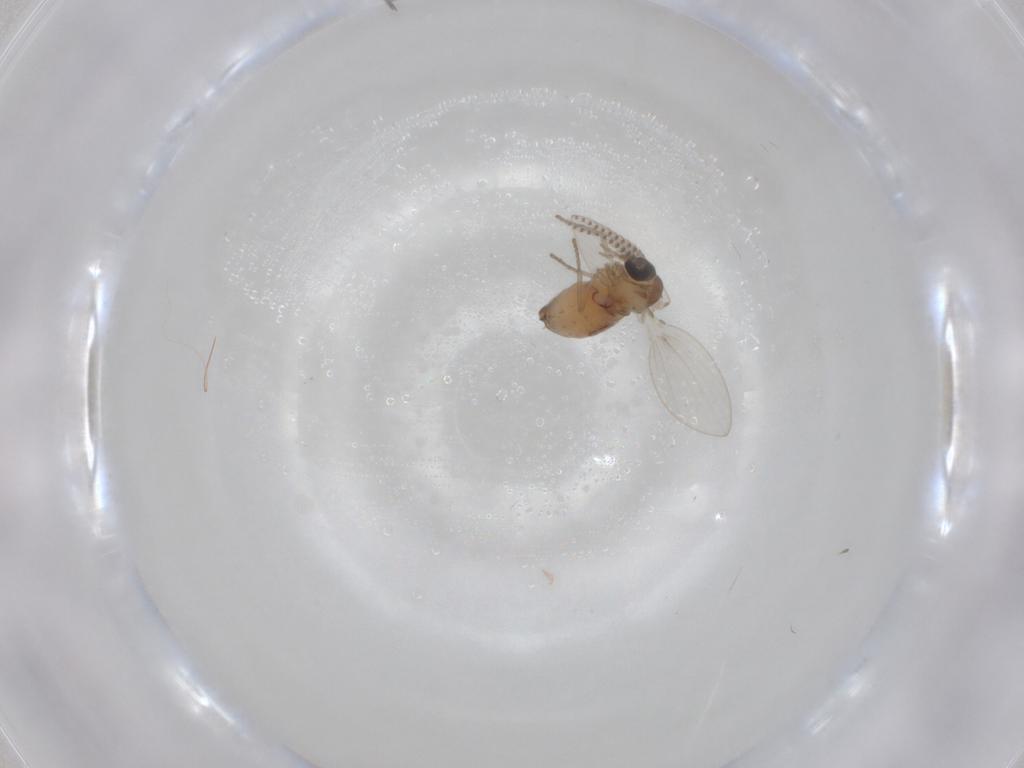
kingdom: Animalia
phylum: Arthropoda
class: Insecta
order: Diptera
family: Psychodidae
